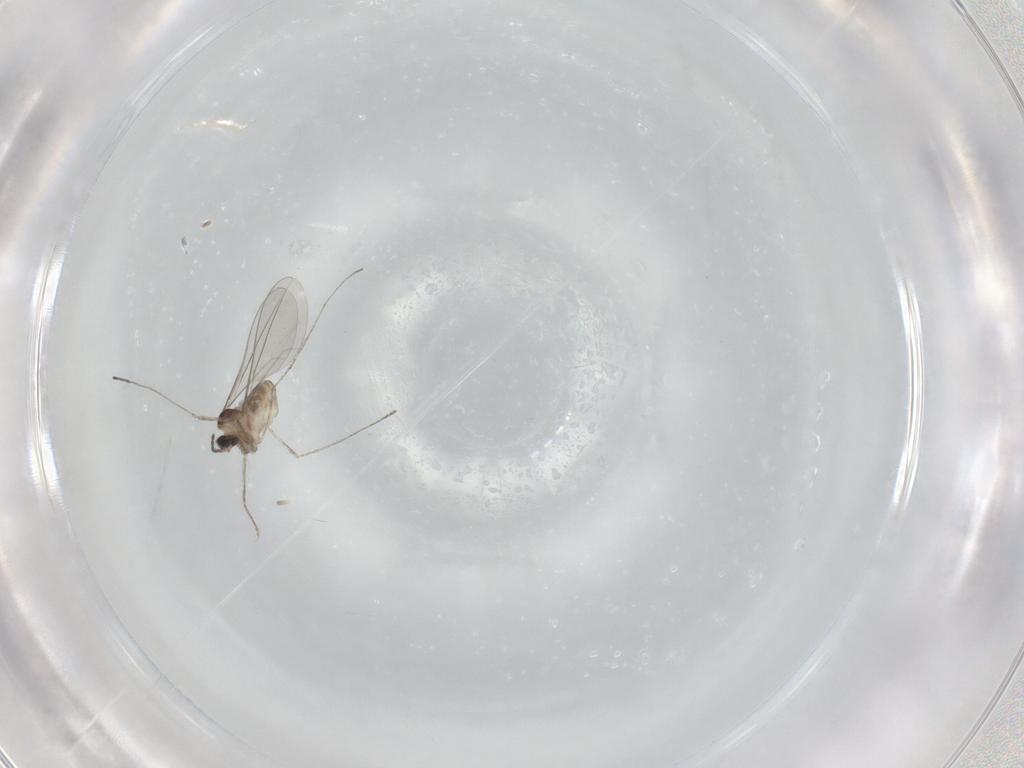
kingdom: Animalia
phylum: Arthropoda
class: Insecta
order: Diptera
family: Cecidomyiidae
